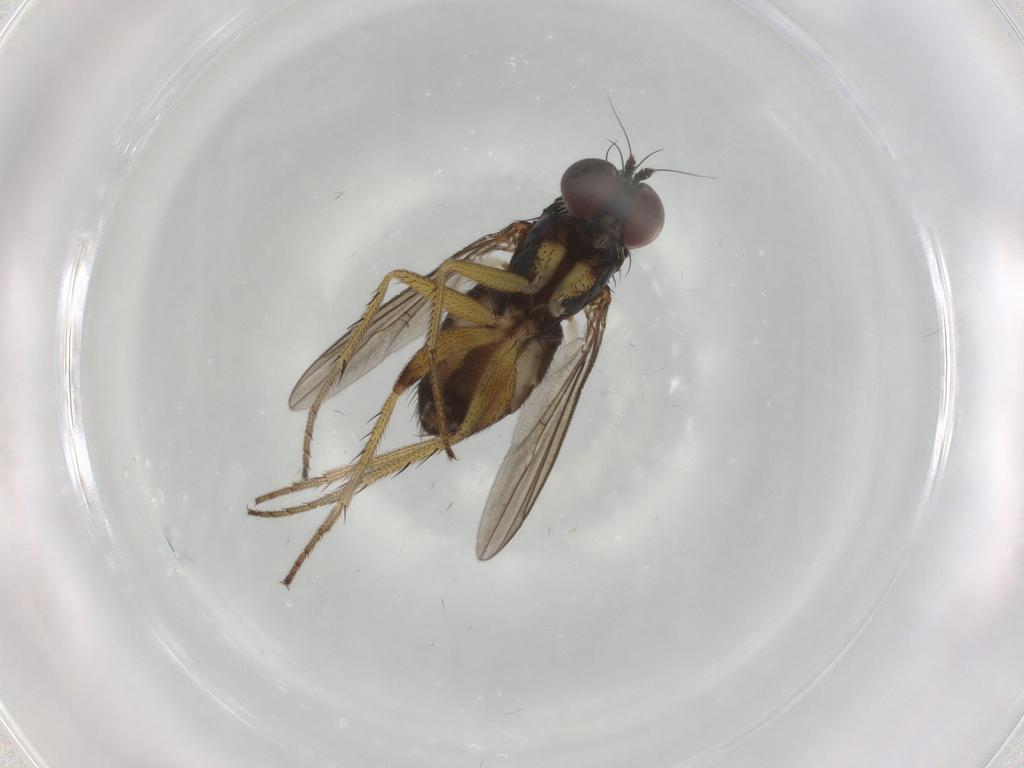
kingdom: Animalia
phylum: Arthropoda
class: Insecta
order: Diptera
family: Dolichopodidae
